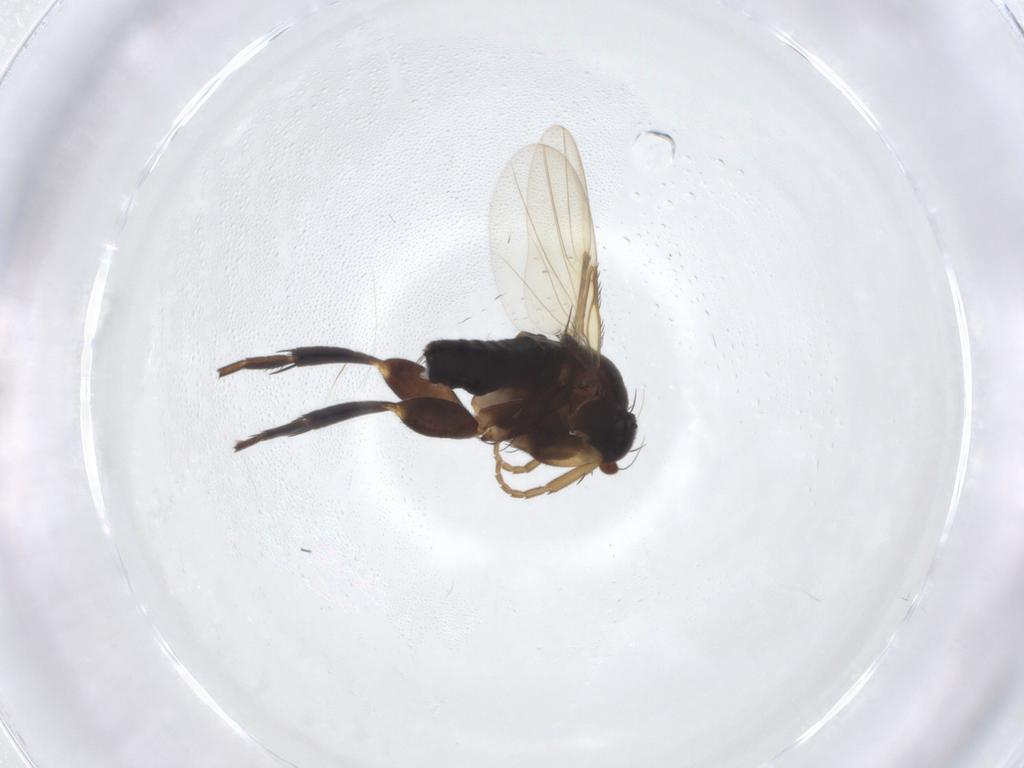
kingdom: Animalia
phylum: Arthropoda
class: Insecta
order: Diptera
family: Phoridae
